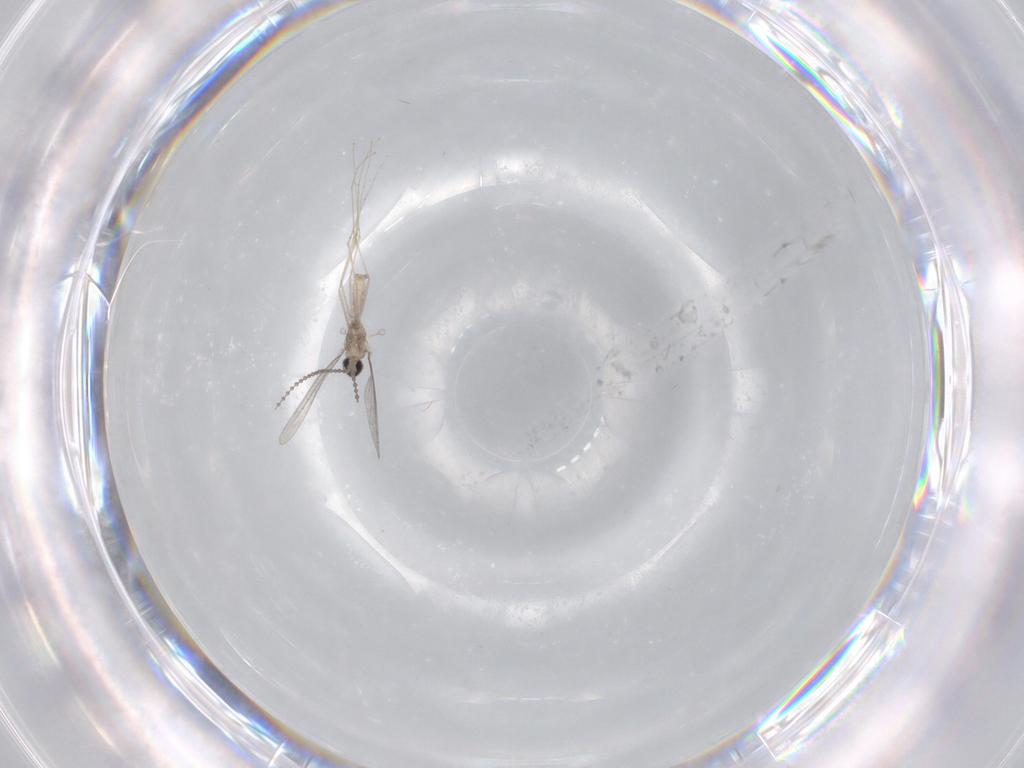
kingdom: Animalia
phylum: Arthropoda
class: Insecta
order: Diptera
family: Cecidomyiidae
